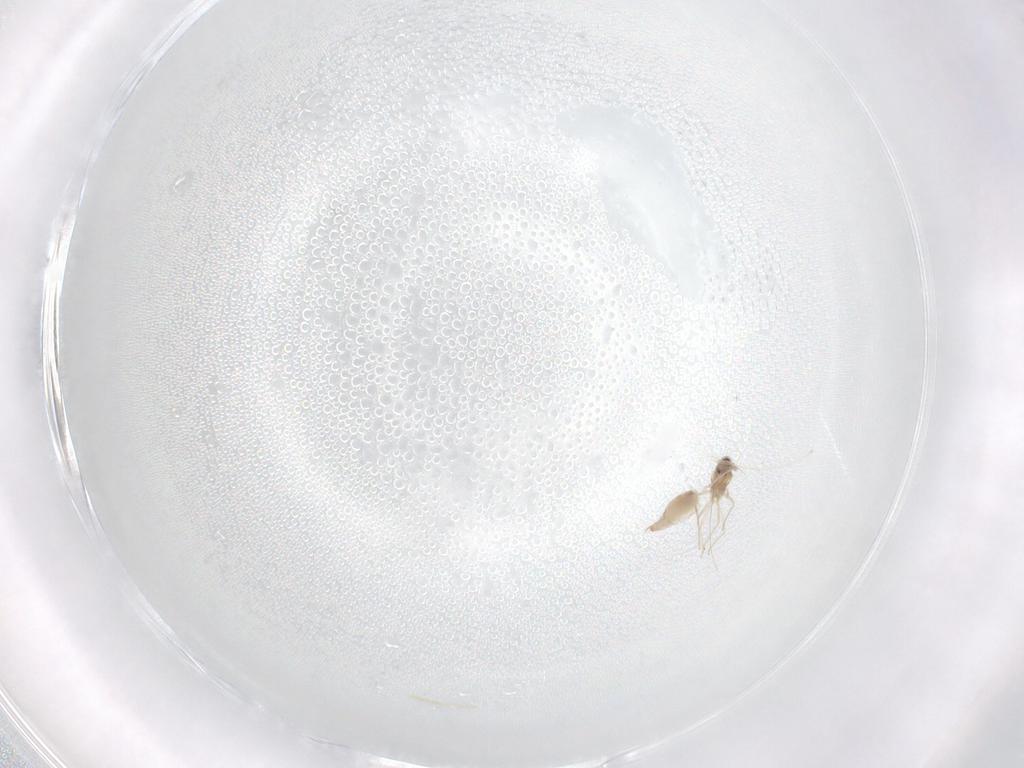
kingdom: Animalia
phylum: Arthropoda
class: Insecta
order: Diptera
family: Cecidomyiidae
